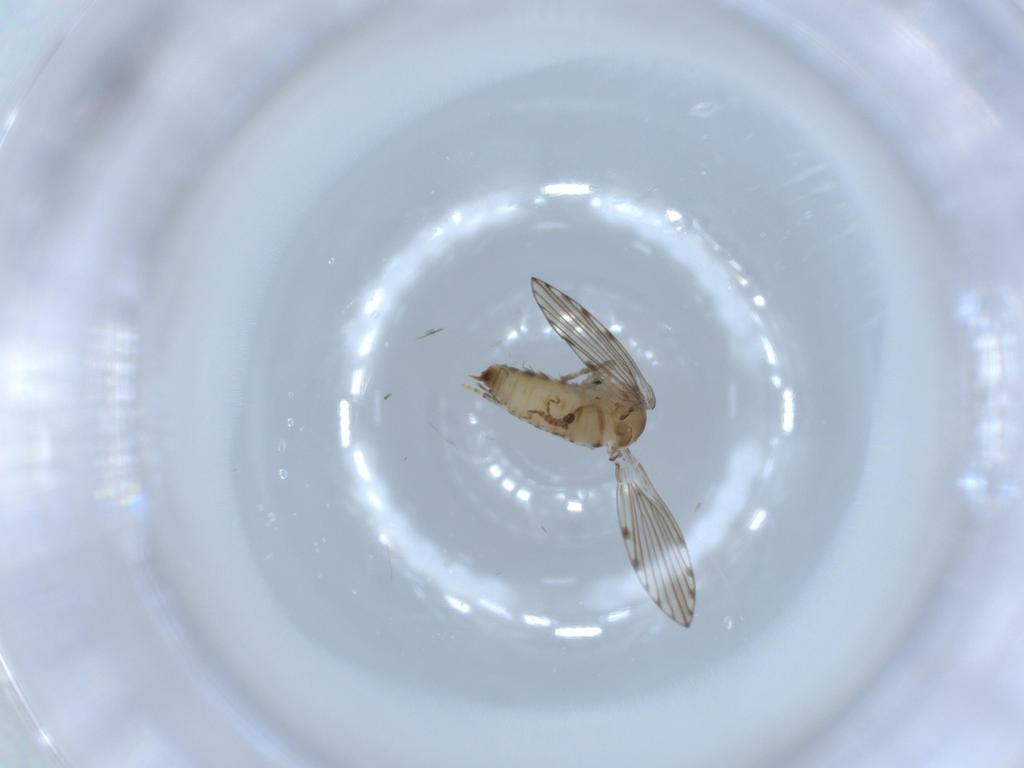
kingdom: Animalia
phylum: Arthropoda
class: Insecta
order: Diptera
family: Psychodidae
